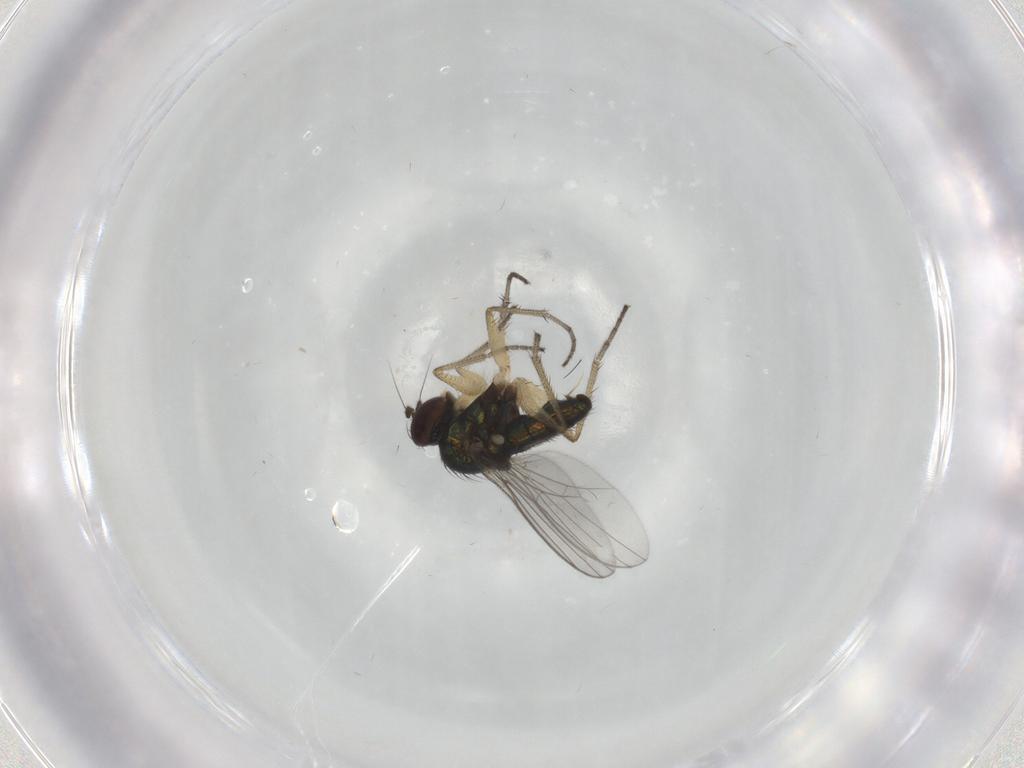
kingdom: Animalia
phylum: Arthropoda
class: Insecta
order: Diptera
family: Dolichopodidae
